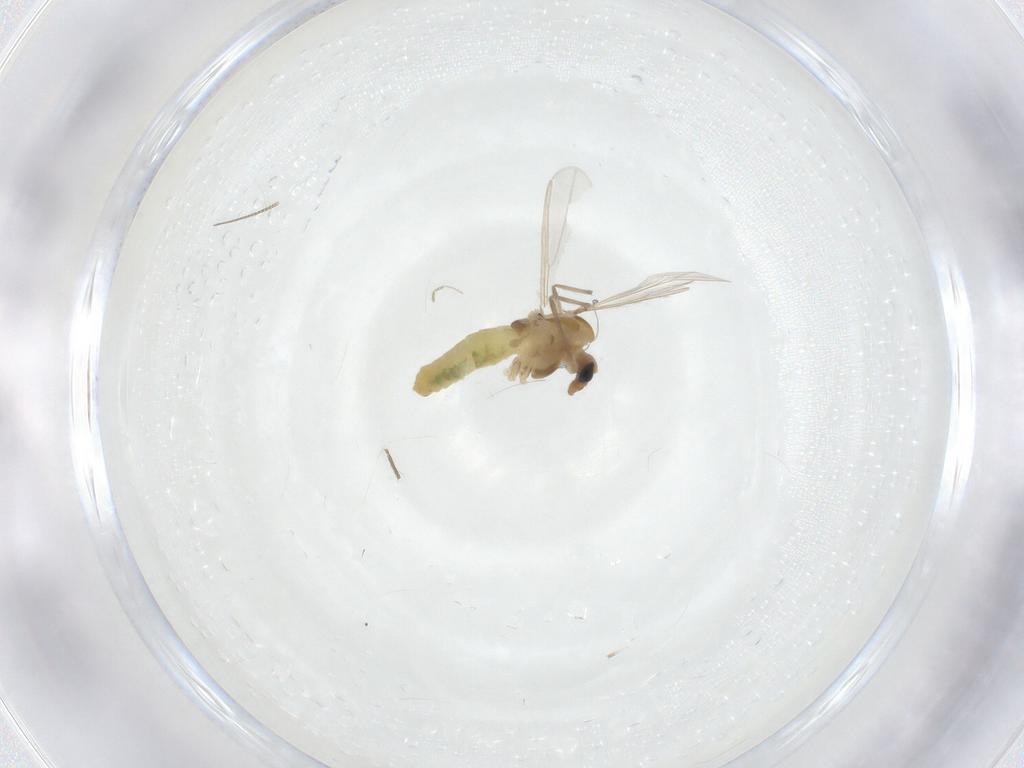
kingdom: Animalia
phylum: Arthropoda
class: Insecta
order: Diptera
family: Chironomidae
